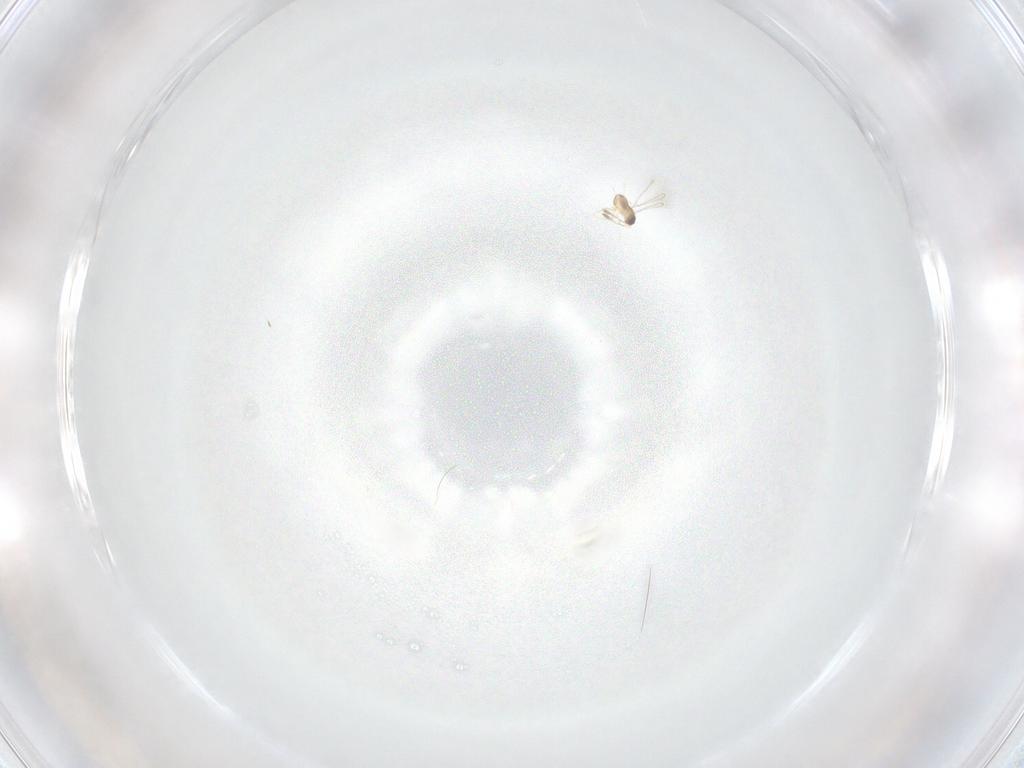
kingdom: Animalia
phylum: Arthropoda
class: Insecta
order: Hymenoptera
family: Mymaridae
